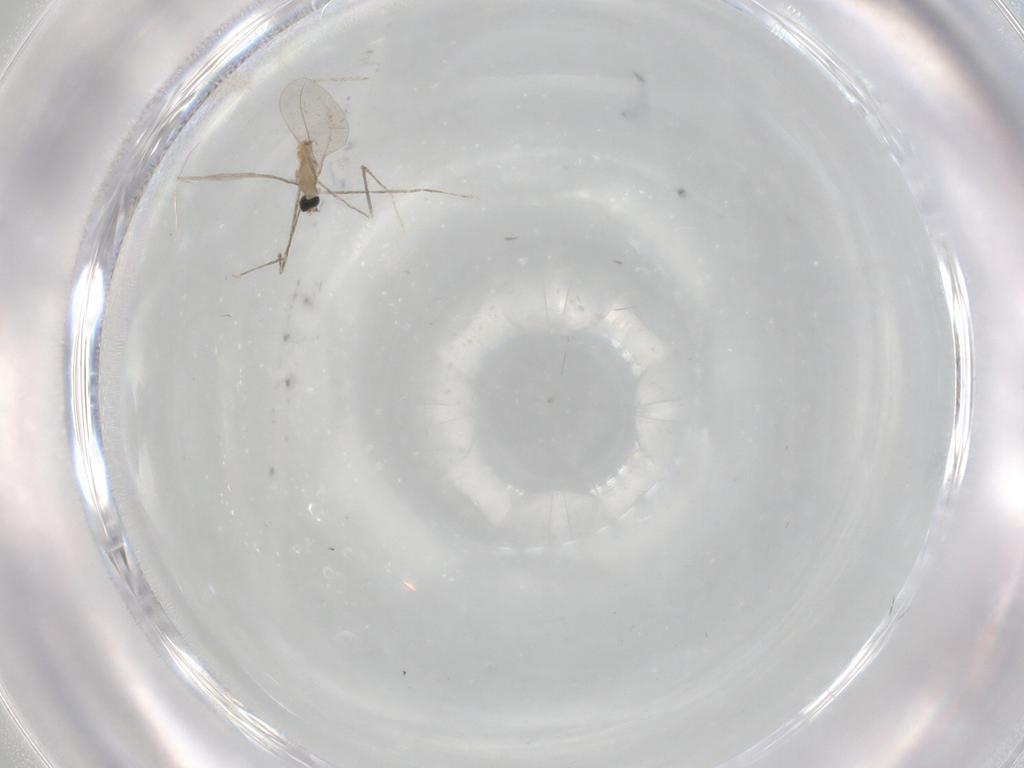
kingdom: Animalia
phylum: Arthropoda
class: Insecta
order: Diptera
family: Cecidomyiidae
